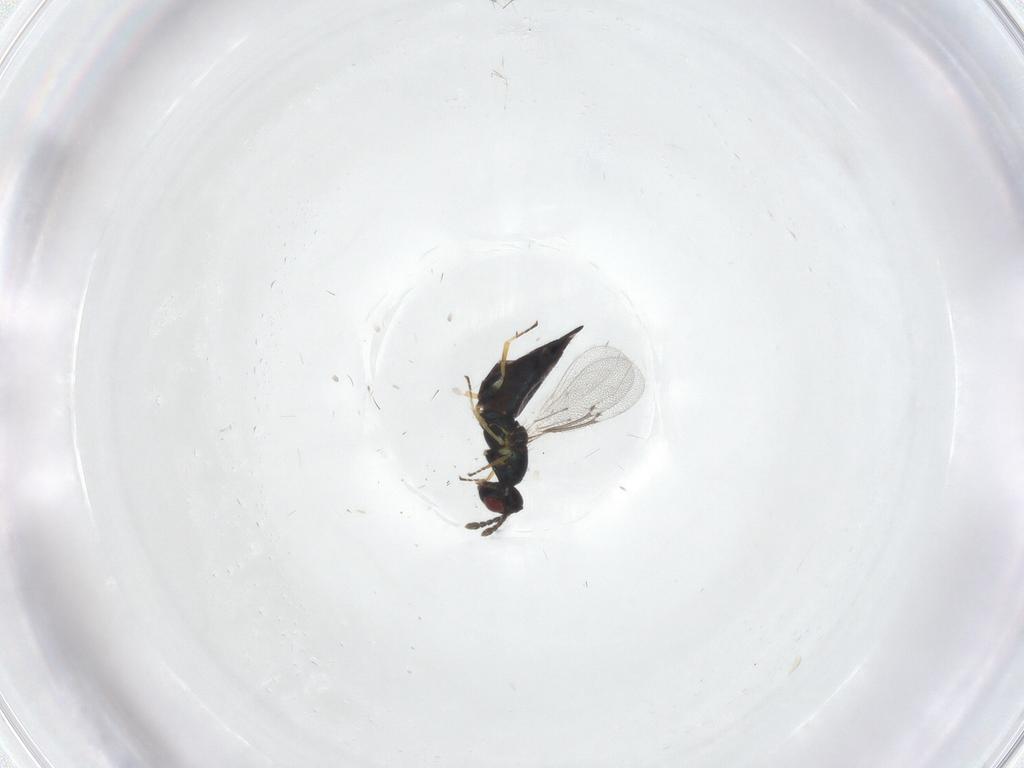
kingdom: Animalia
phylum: Arthropoda
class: Insecta
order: Hymenoptera
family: Eulophidae
